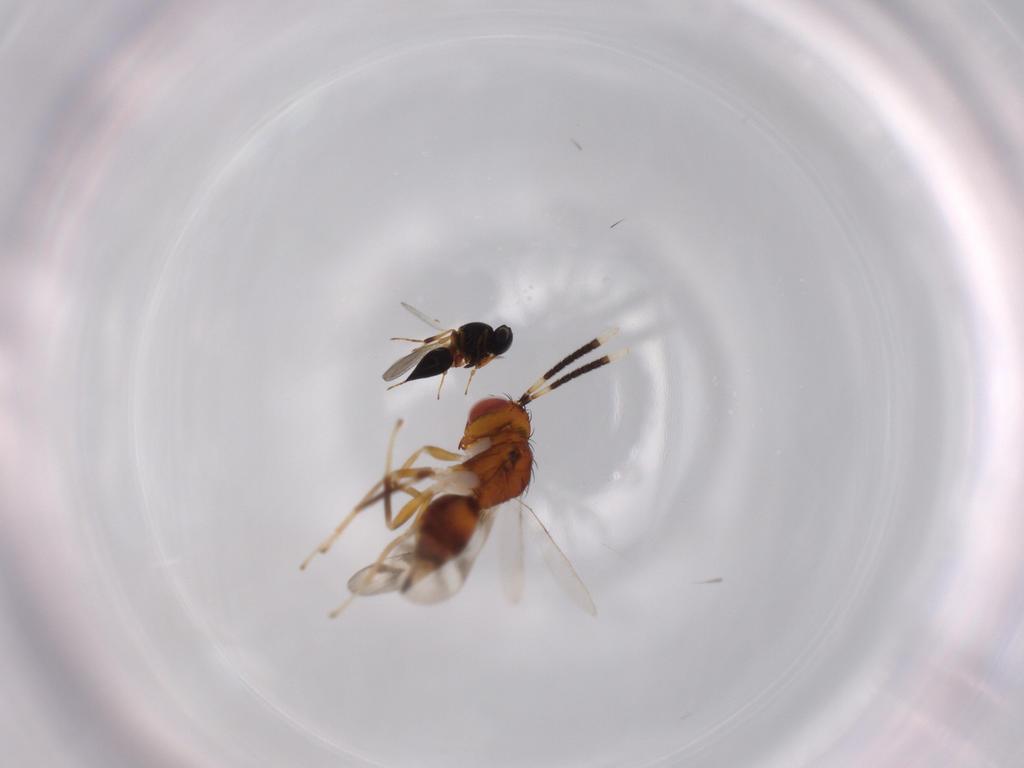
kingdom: Animalia
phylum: Arthropoda
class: Insecta
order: Hymenoptera
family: Diparidae
